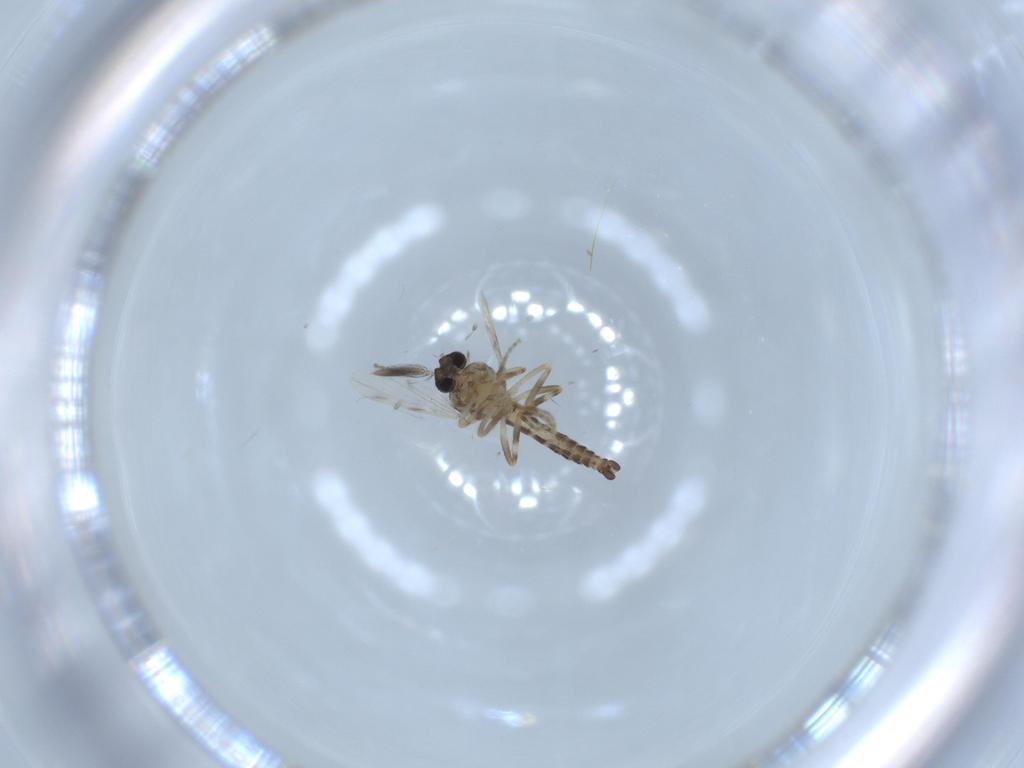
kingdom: Animalia
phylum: Arthropoda
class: Insecta
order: Diptera
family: Ceratopogonidae
